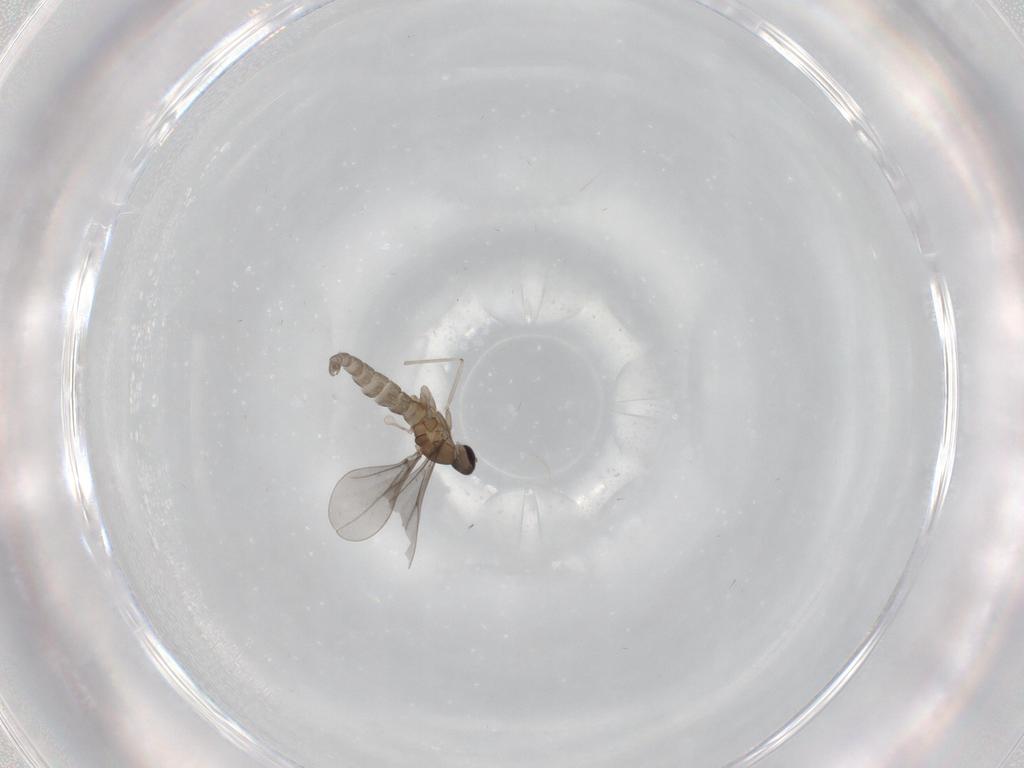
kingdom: Animalia
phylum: Arthropoda
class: Insecta
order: Diptera
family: Cecidomyiidae
